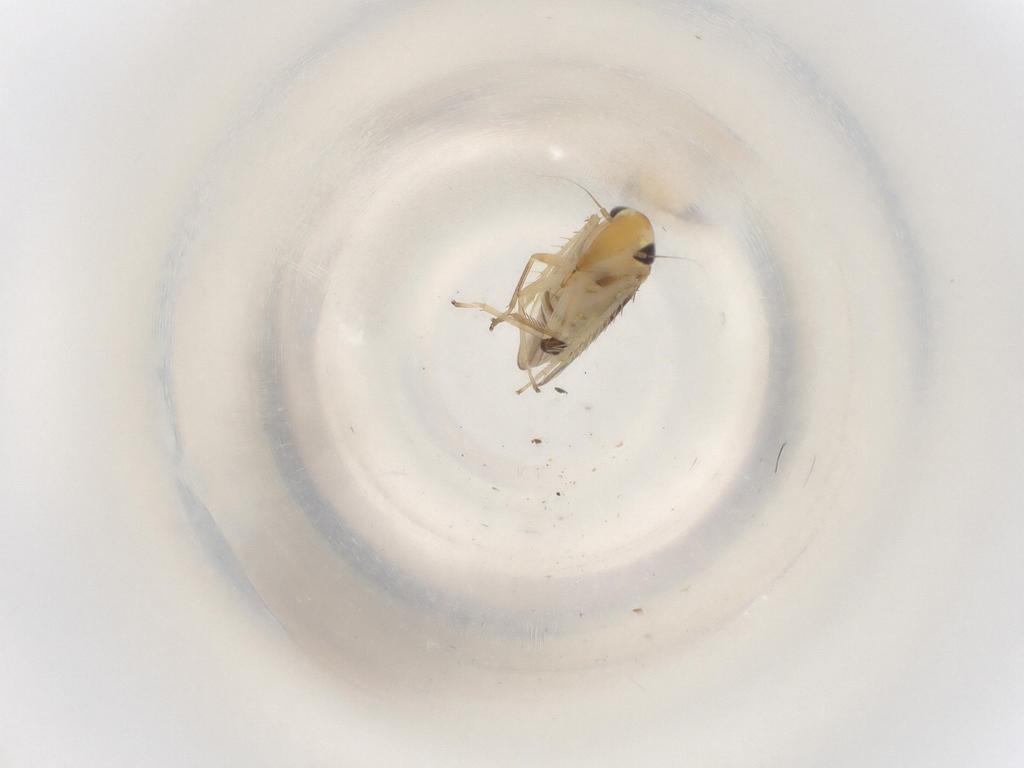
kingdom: Animalia
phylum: Arthropoda
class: Insecta
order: Hemiptera
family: Cicadellidae
